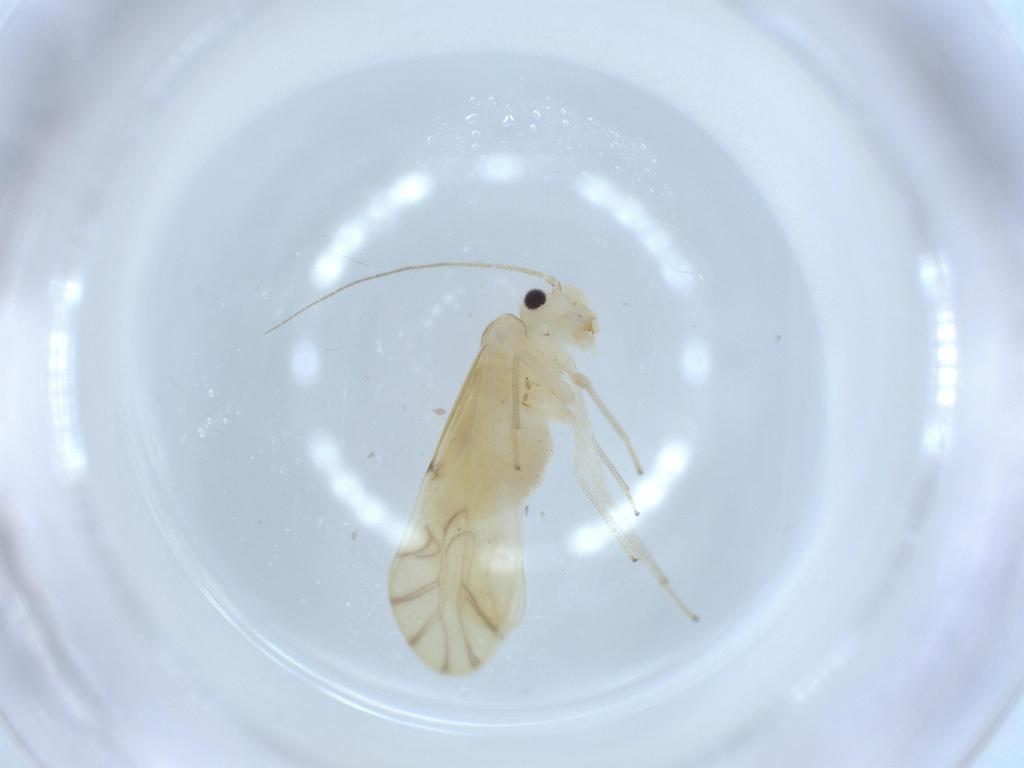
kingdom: Animalia
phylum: Arthropoda
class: Insecta
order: Psocodea
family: Caeciliusidae
